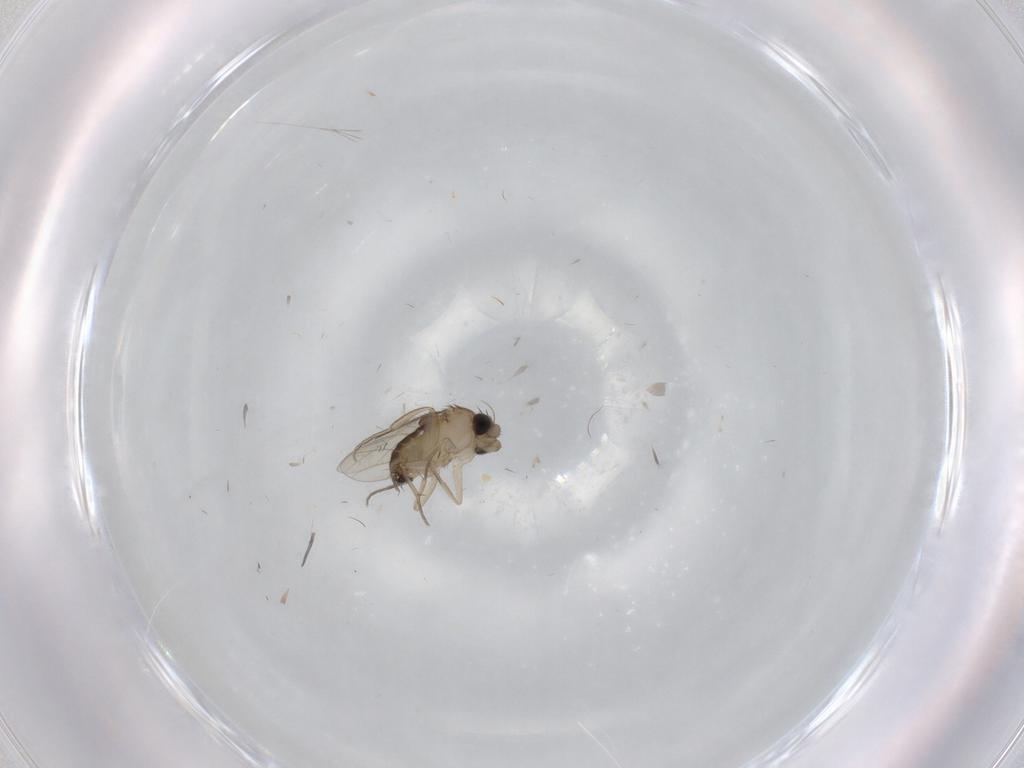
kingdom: Animalia
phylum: Arthropoda
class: Insecta
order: Diptera
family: Phoridae
